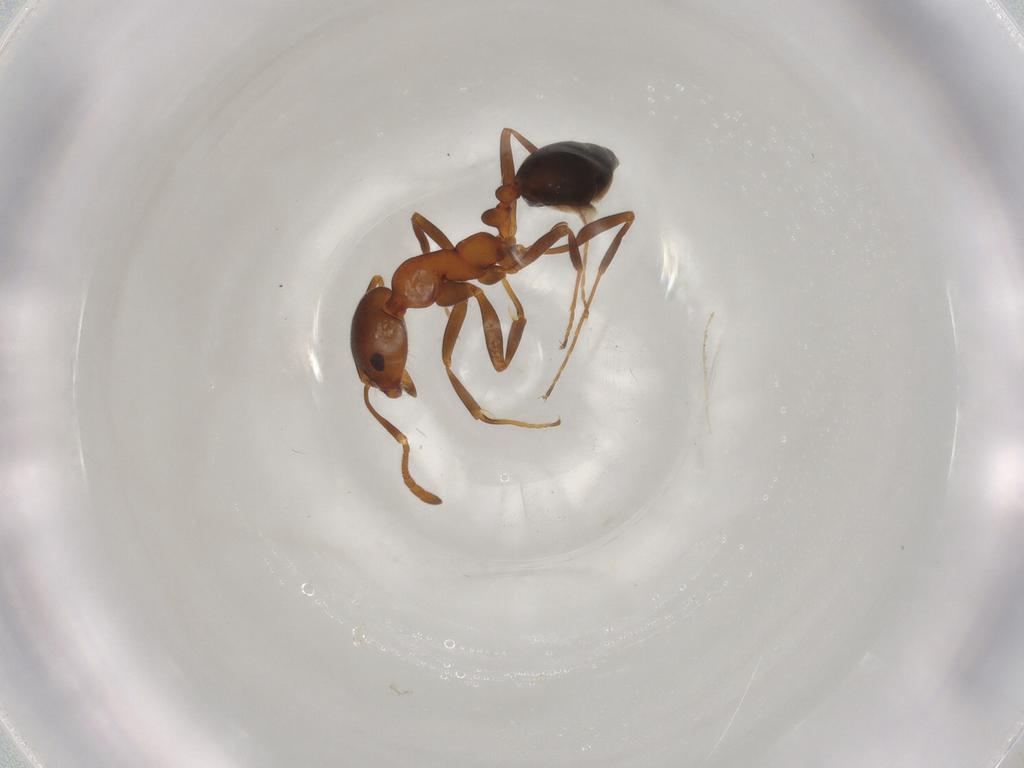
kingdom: Animalia
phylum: Arthropoda
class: Insecta
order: Hymenoptera
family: Formicidae
